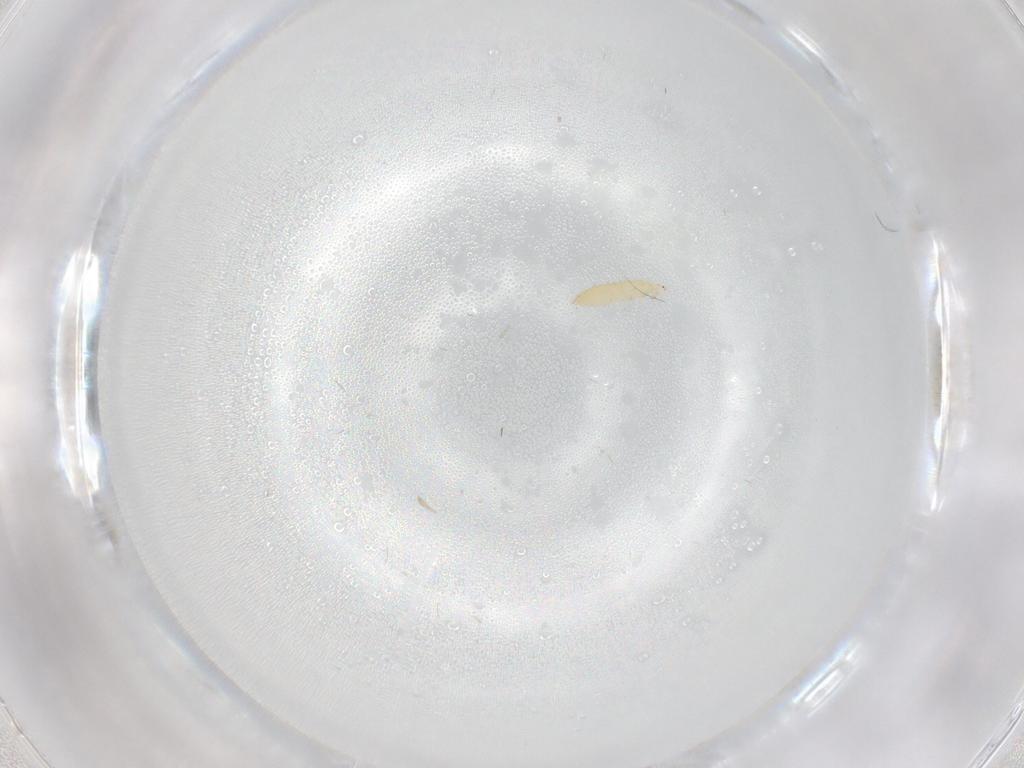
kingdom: Animalia
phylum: Arthropoda
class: Insecta
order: Diptera
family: Sciaridae
